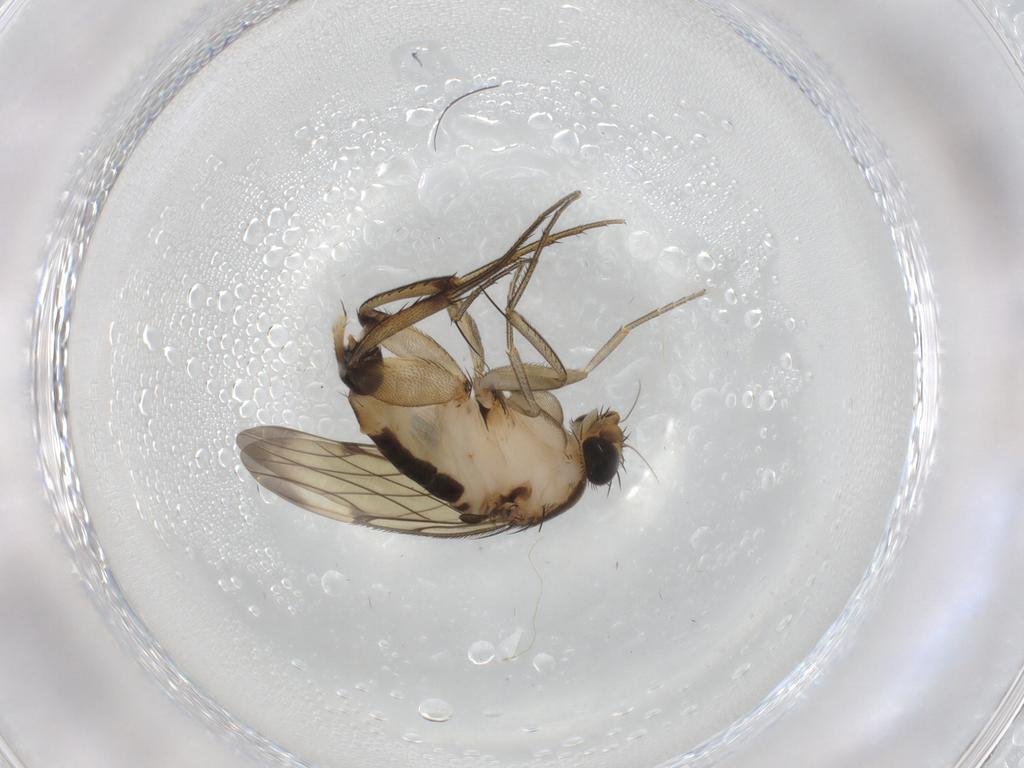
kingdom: Animalia
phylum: Arthropoda
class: Insecta
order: Diptera
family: Phoridae
